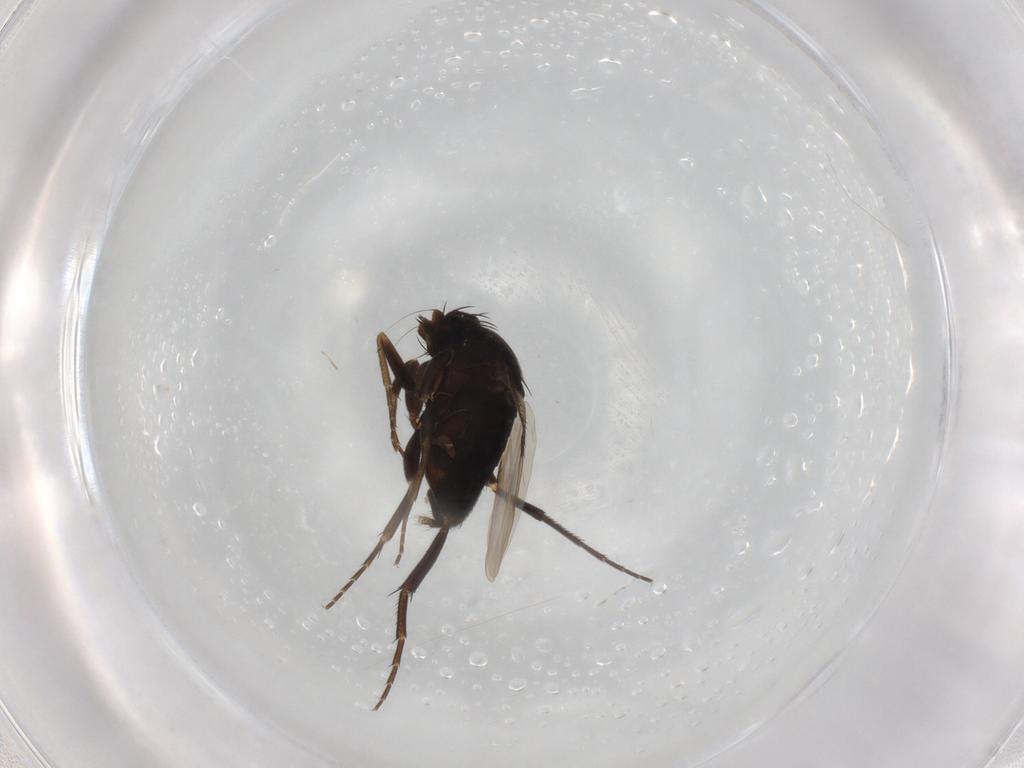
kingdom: Animalia
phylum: Arthropoda
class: Insecta
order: Diptera
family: Phoridae
